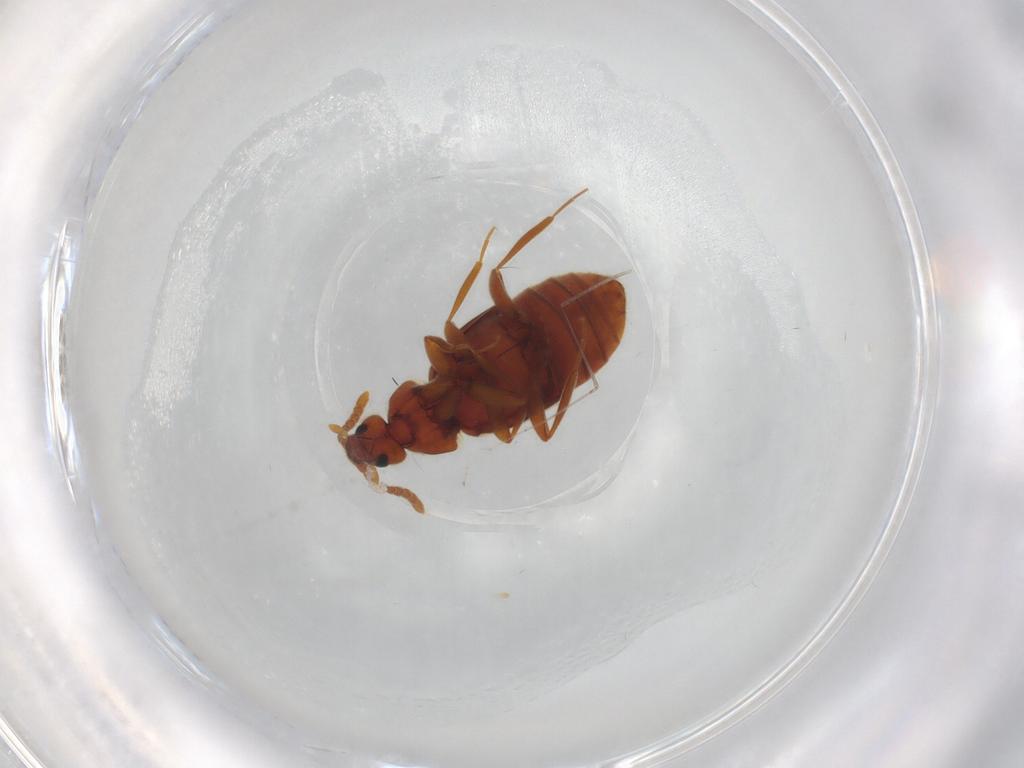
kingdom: Animalia
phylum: Arthropoda
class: Insecta
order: Coleoptera
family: Staphylinidae
